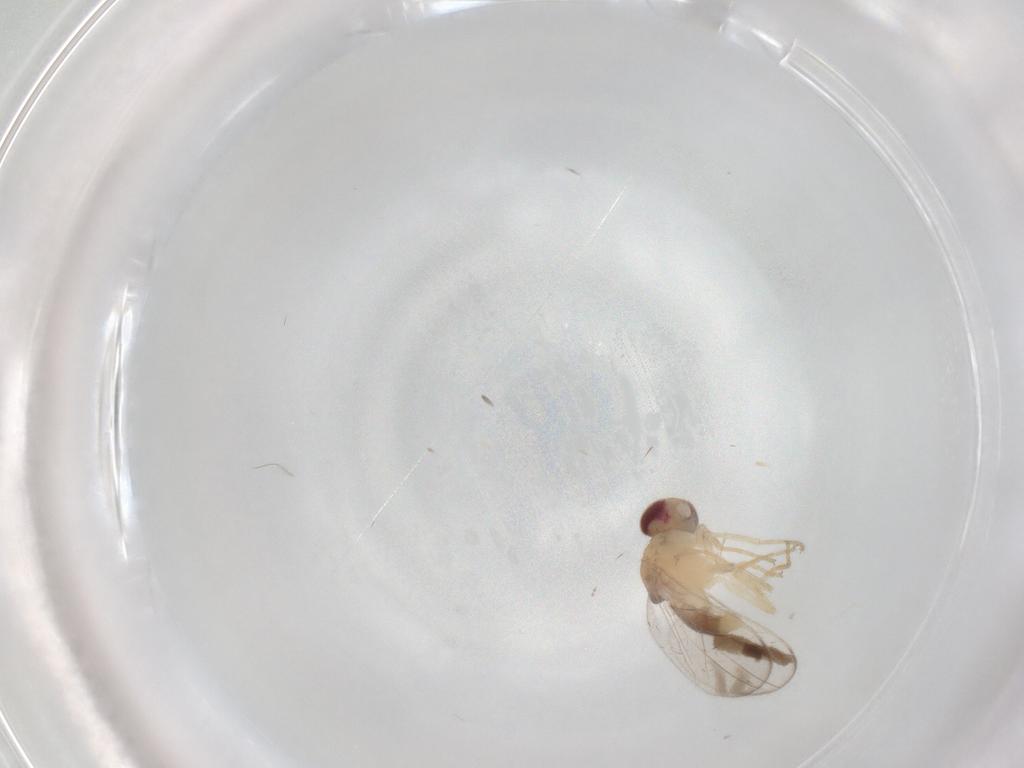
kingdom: Animalia
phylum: Arthropoda
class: Insecta
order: Diptera
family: Chloropidae
